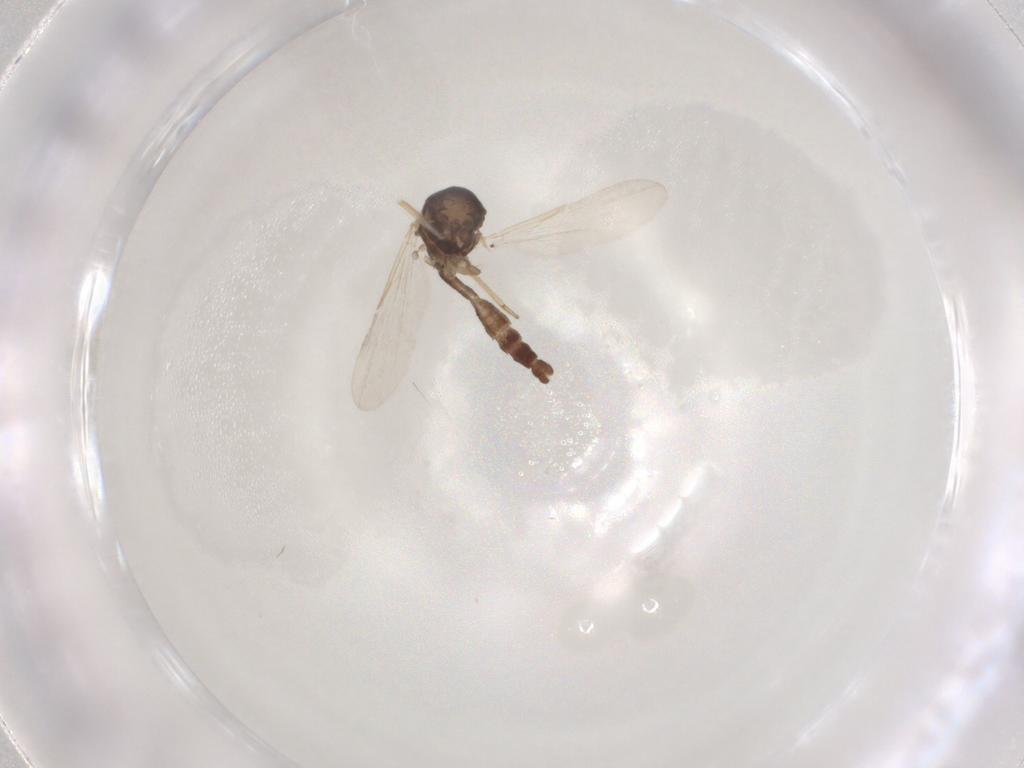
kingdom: Animalia
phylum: Arthropoda
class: Insecta
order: Diptera
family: Ceratopogonidae
